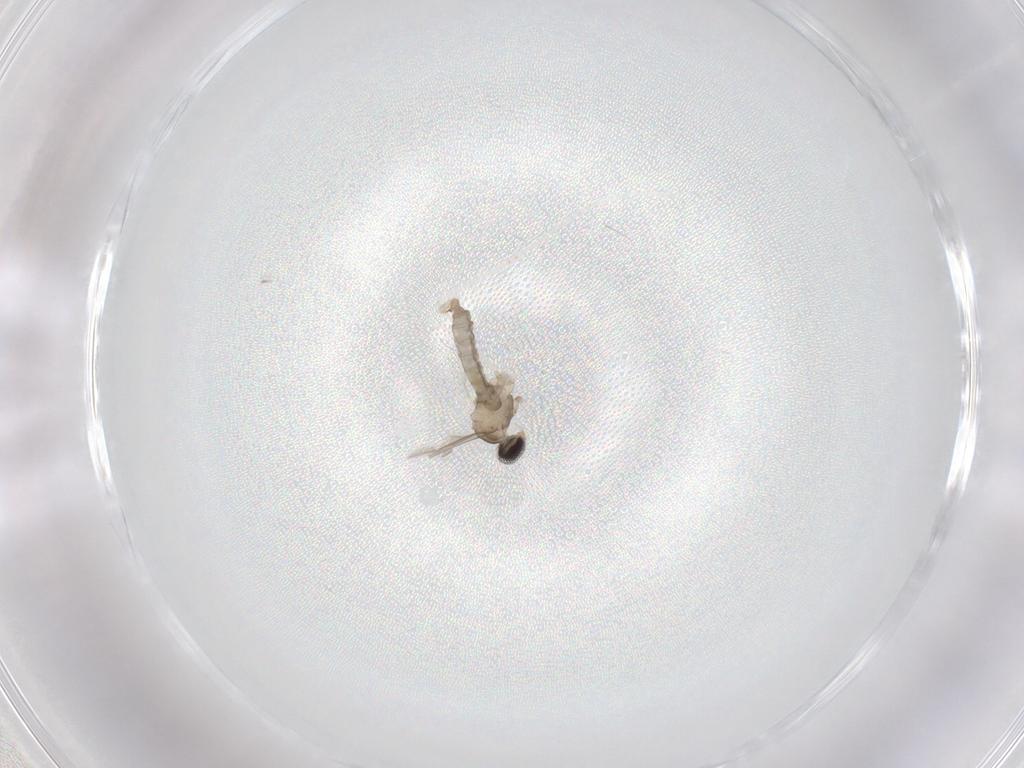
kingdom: Animalia
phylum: Arthropoda
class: Insecta
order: Diptera
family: Cecidomyiidae
